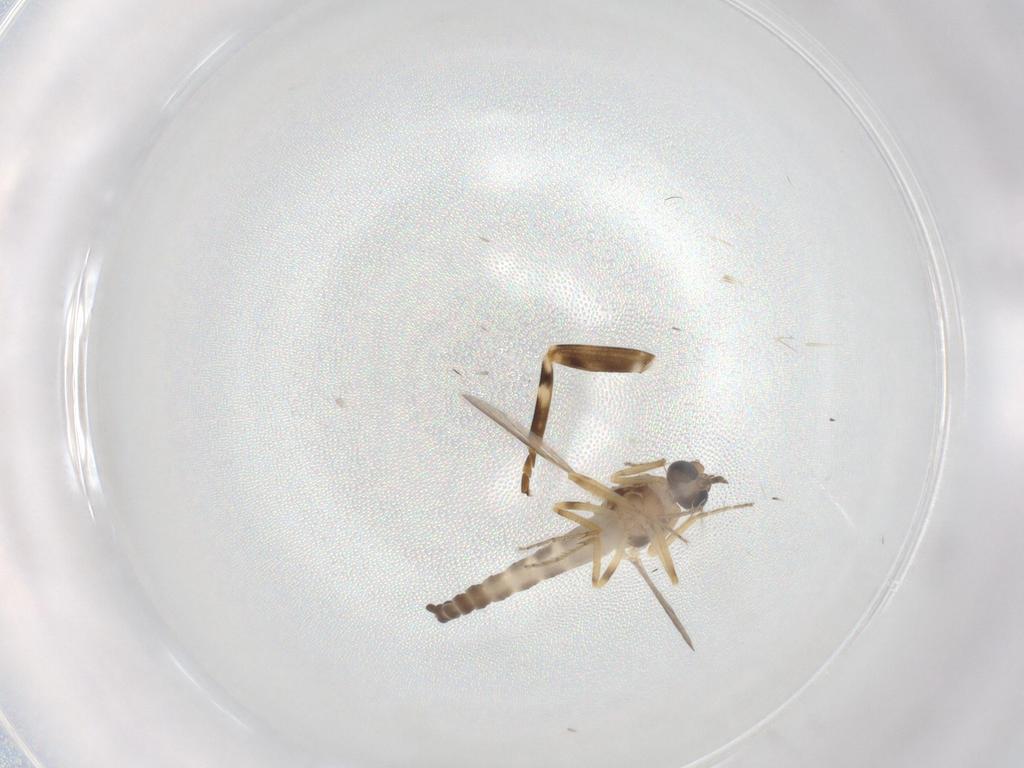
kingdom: Animalia
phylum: Arthropoda
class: Insecta
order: Diptera
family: Ceratopogonidae
